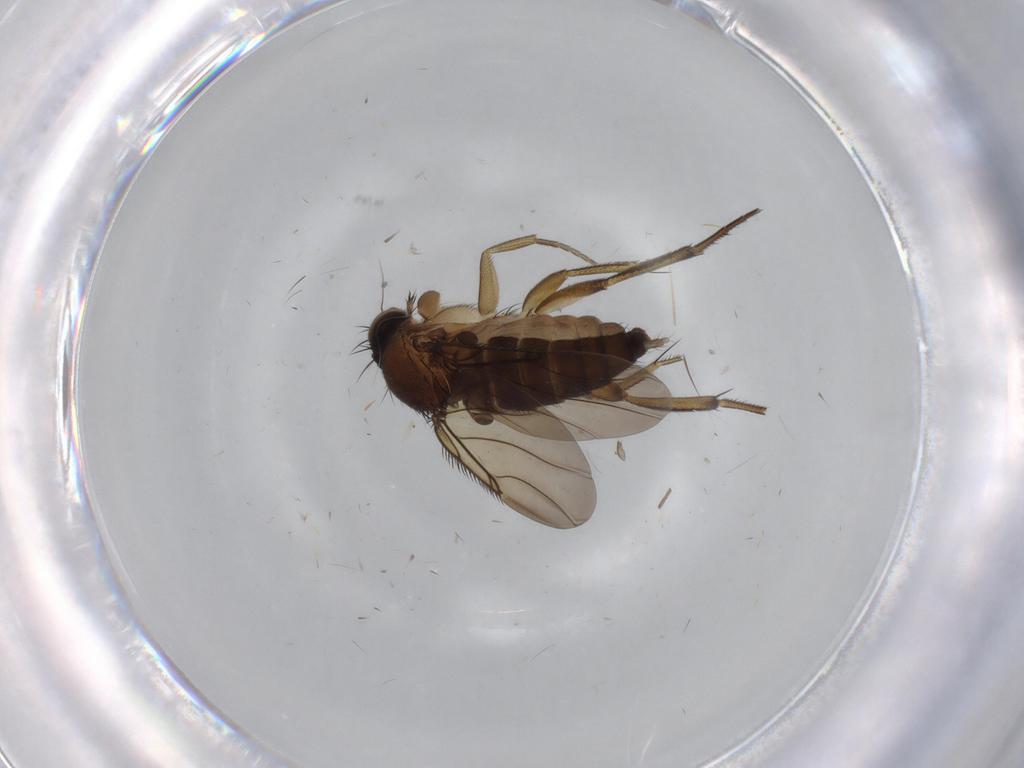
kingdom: Animalia
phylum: Arthropoda
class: Insecta
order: Diptera
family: Phoridae
